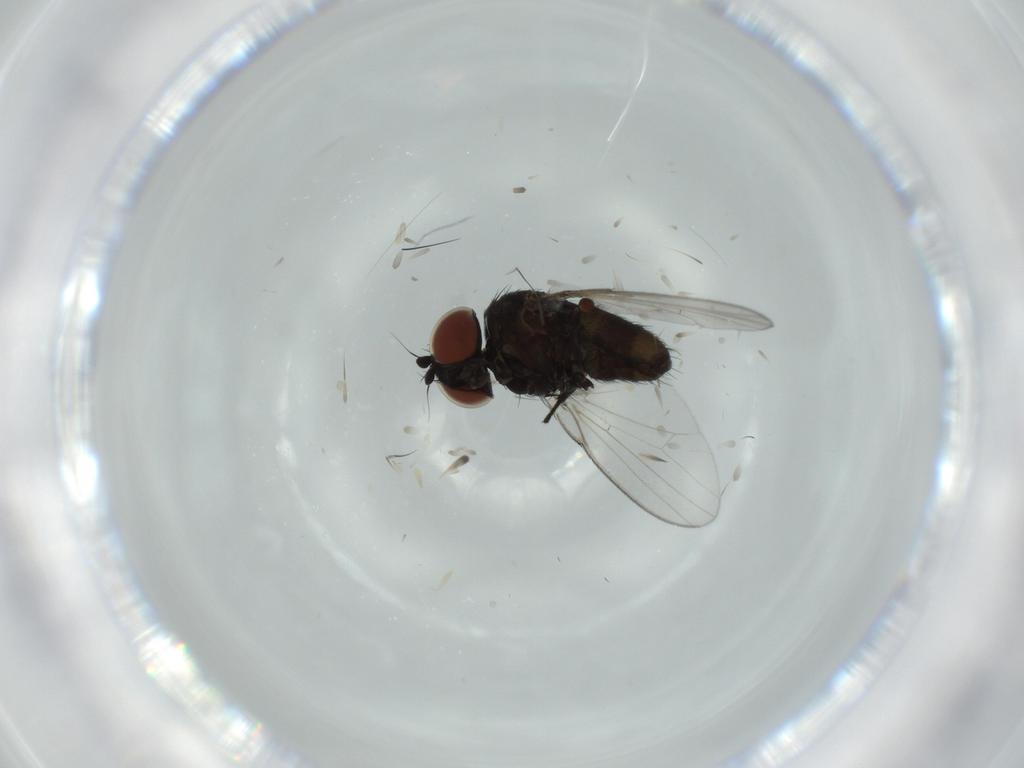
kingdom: Animalia
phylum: Arthropoda
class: Insecta
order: Diptera
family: Milichiidae
